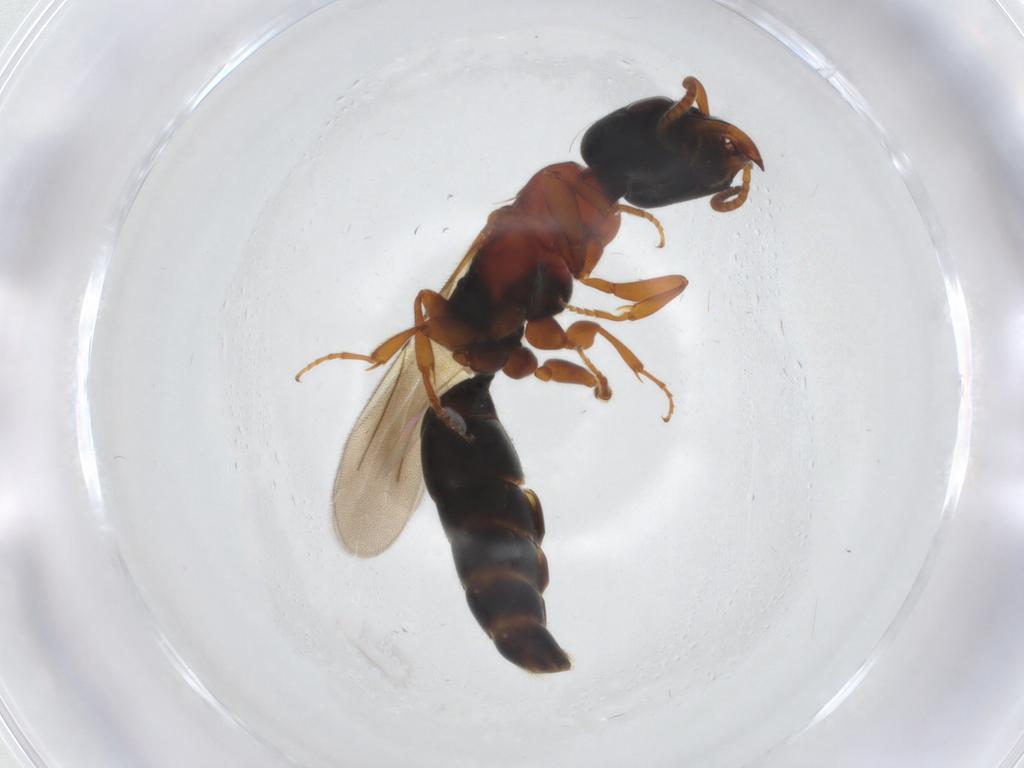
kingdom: Animalia
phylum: Arthropoda
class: Insecta
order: Hymenoptera
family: Bethylidae
